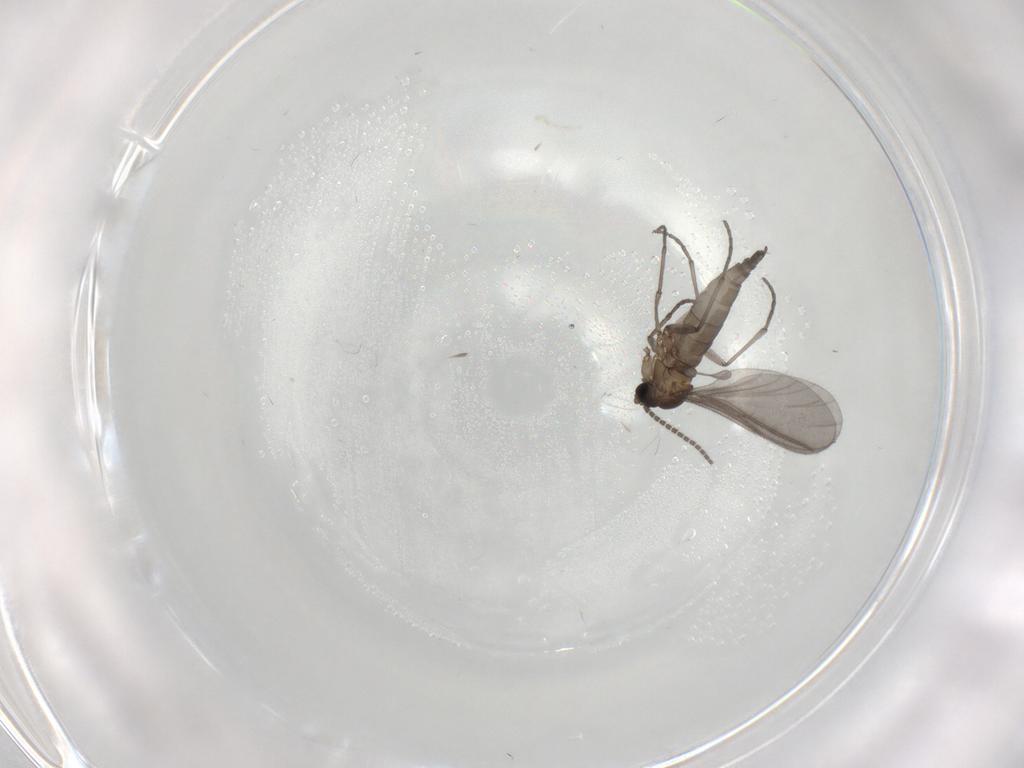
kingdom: Animalia
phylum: Arthropoda
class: Insecta
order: Diptera
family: Sciaridae
